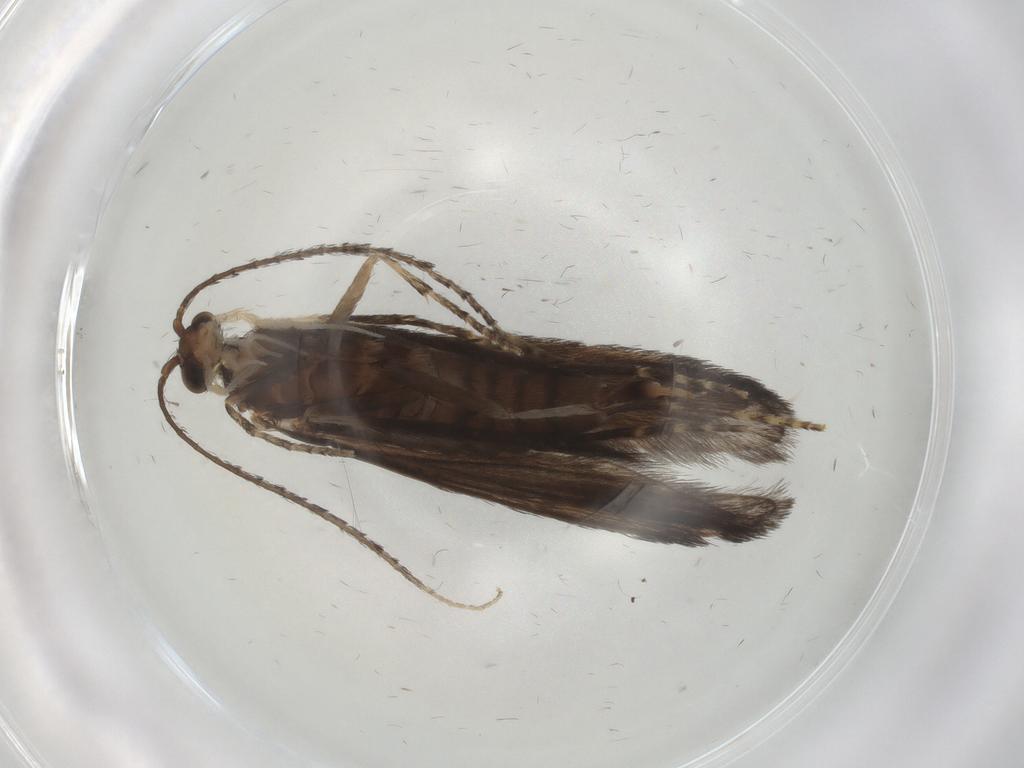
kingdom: Animalia
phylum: Arthropoda
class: Insecta
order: Trichoptera
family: Xiphocentronidae
